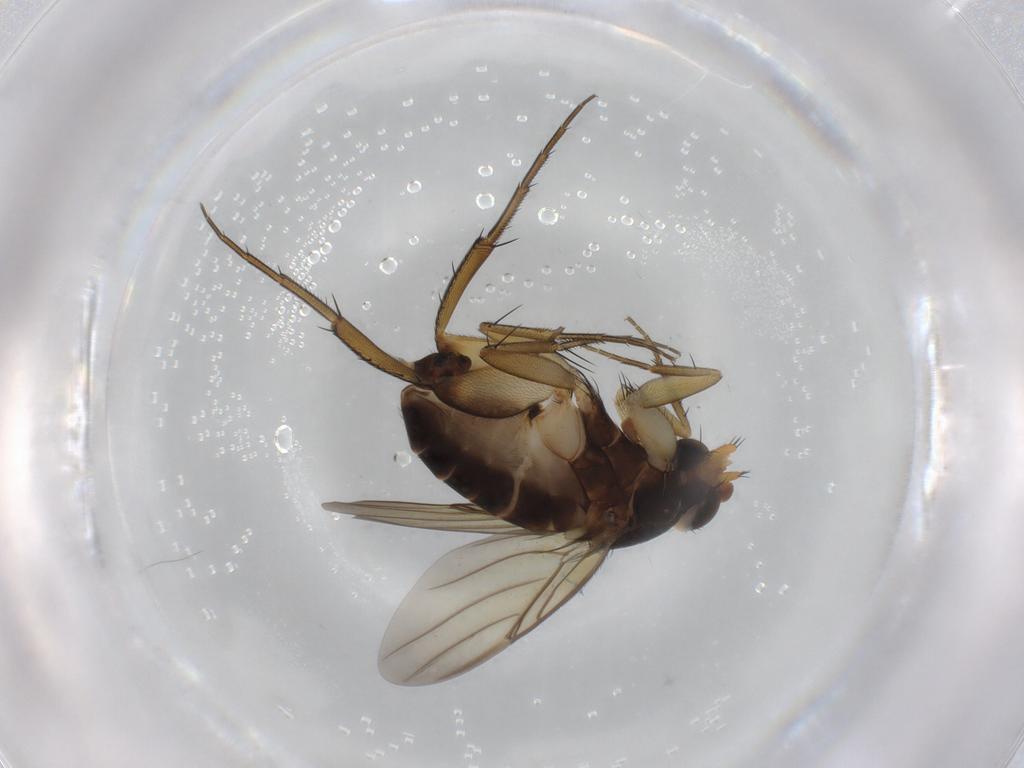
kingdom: Animalia
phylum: Arthropoda
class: Insecta
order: Diptera
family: Phoridae
